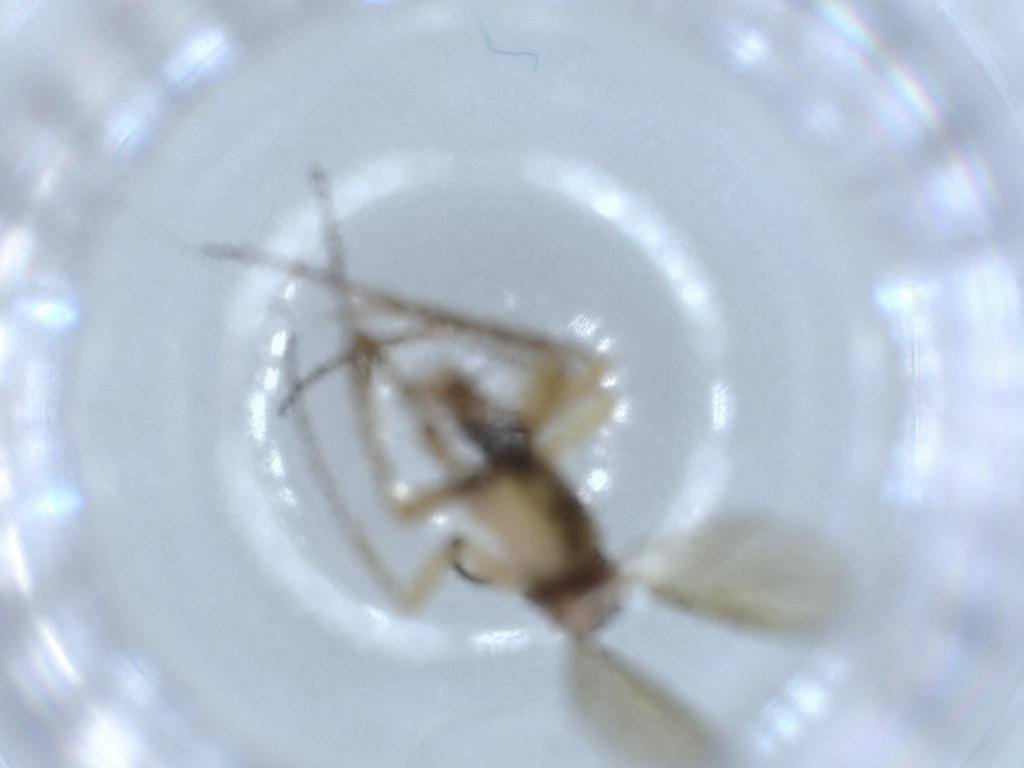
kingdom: Animalia
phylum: Arthropoda
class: Insecta
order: Diptera
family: Mycetophilidae
